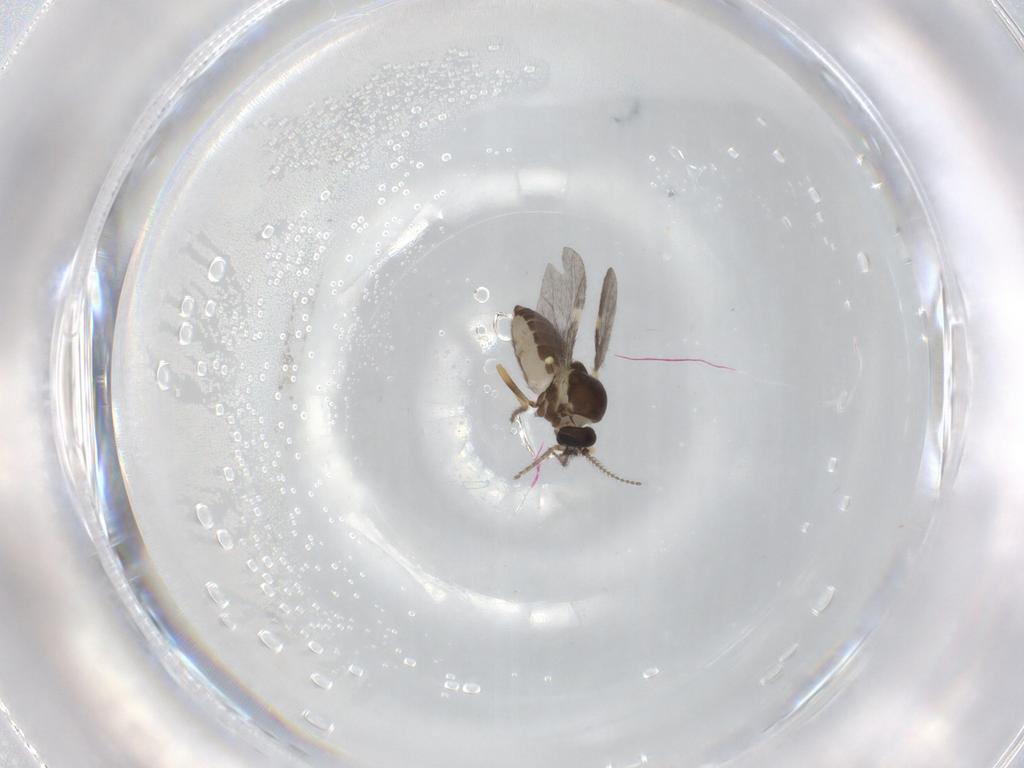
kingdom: Animalia
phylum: Arthropoda
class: Insecta
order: Diptera
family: Ceratopogonidae
